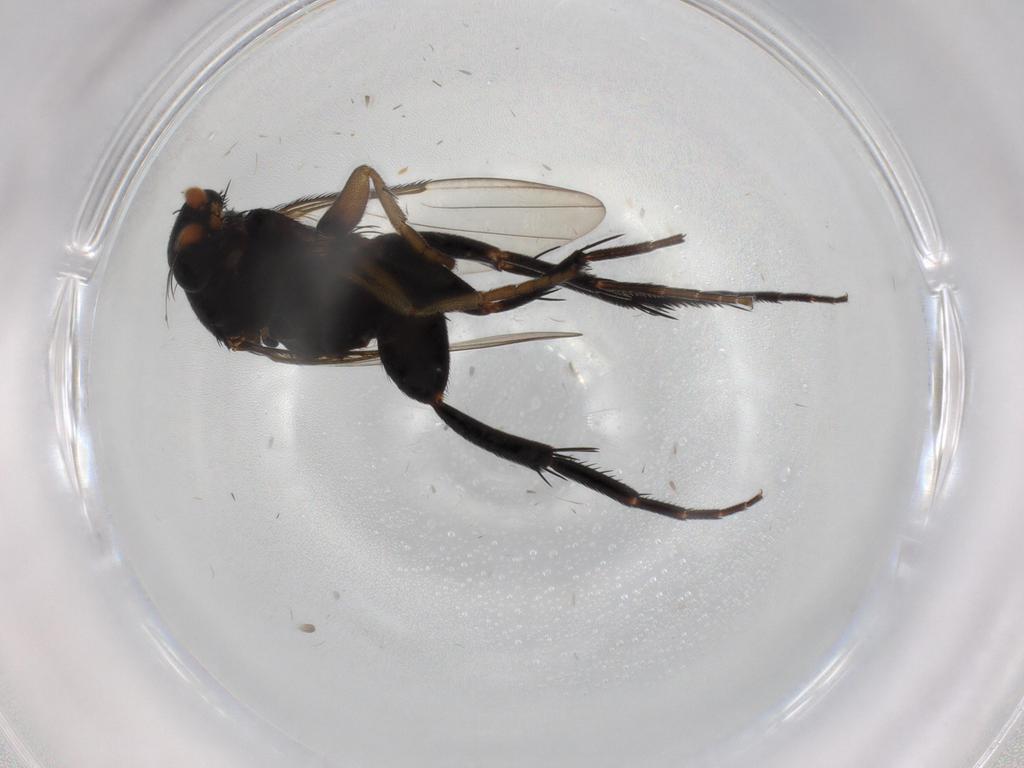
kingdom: Animalia
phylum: Arthropoda
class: Insecta
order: Diptera
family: Phoridae
